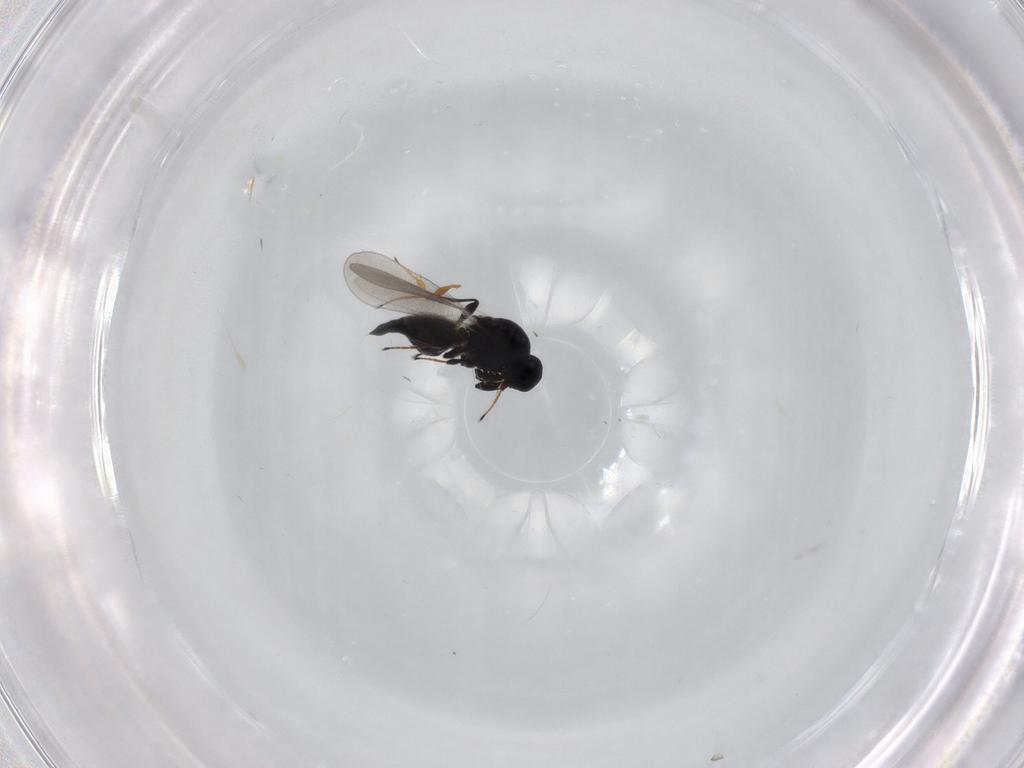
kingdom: Animalia
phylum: Arthropoda
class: Insecta
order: Hymenoptera
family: Platygastridae
